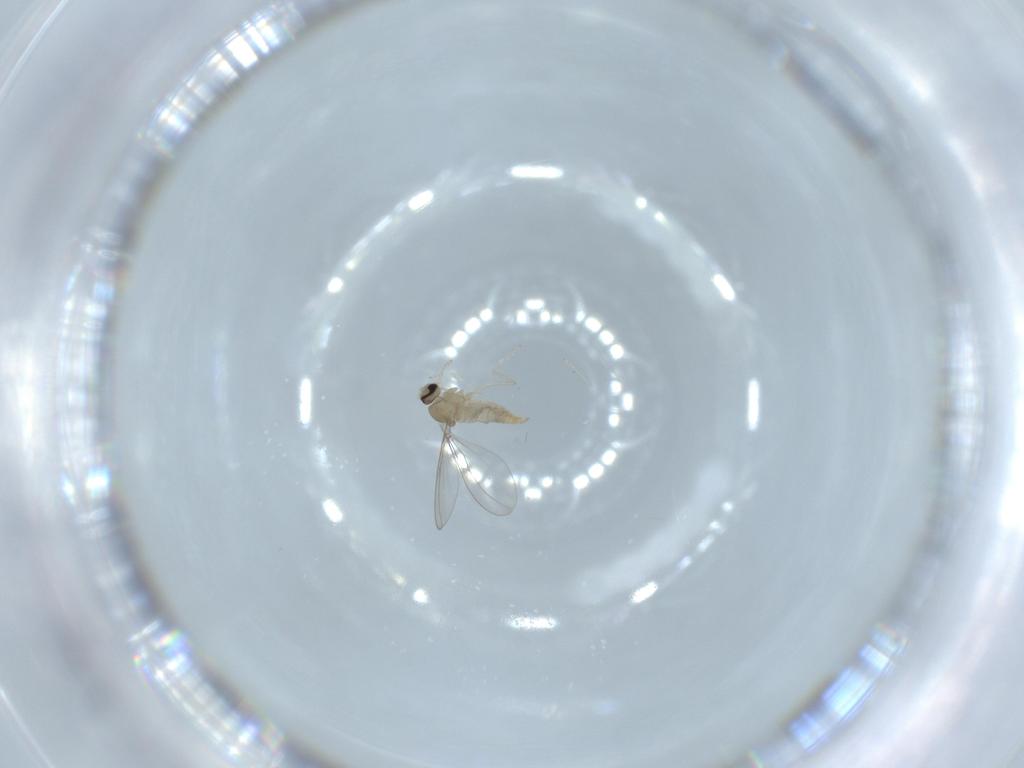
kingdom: Animalia
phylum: Arthropoda
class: Insecta
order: Diptera
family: Cecidomyiidae
